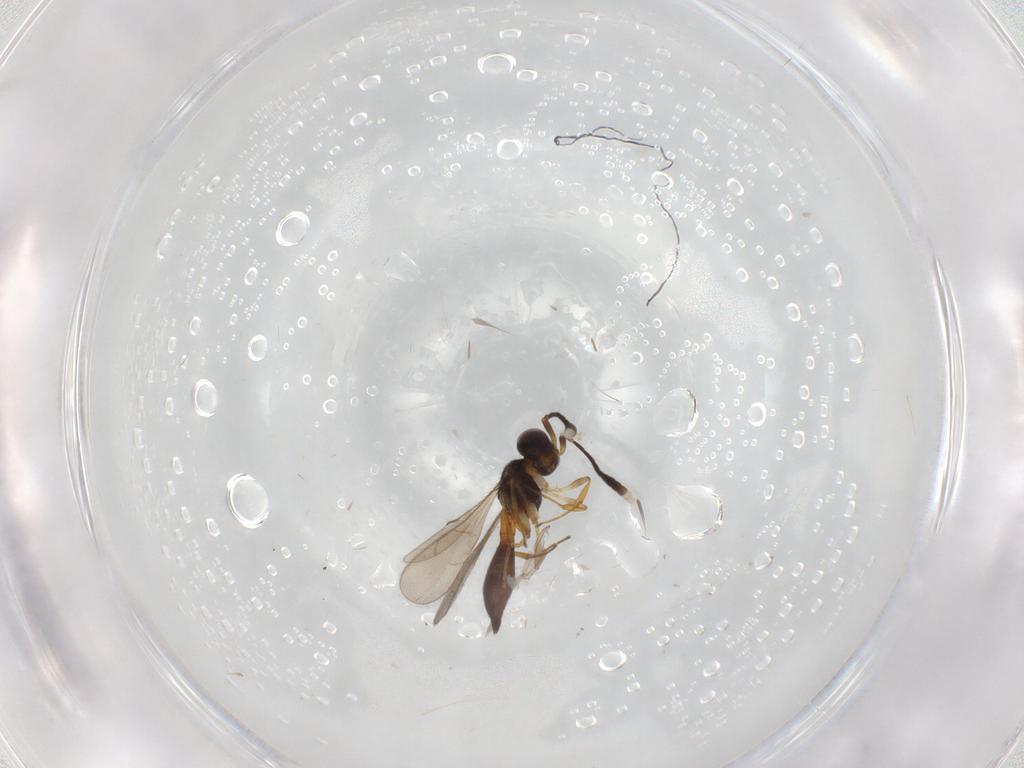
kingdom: Animalia
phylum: Arthropoda
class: Insecta
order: Hymenoptera
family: Scelionidae
